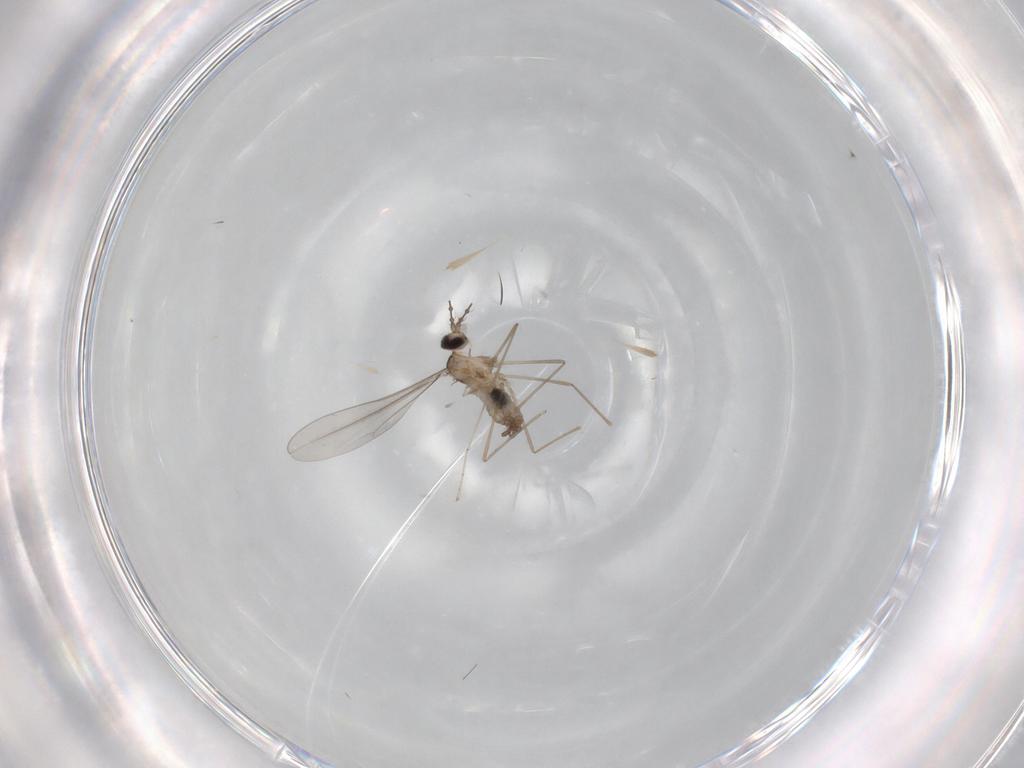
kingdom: Animalia
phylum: Arthropoda
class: Insecta
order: Diptera
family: Cecidomyiidae
